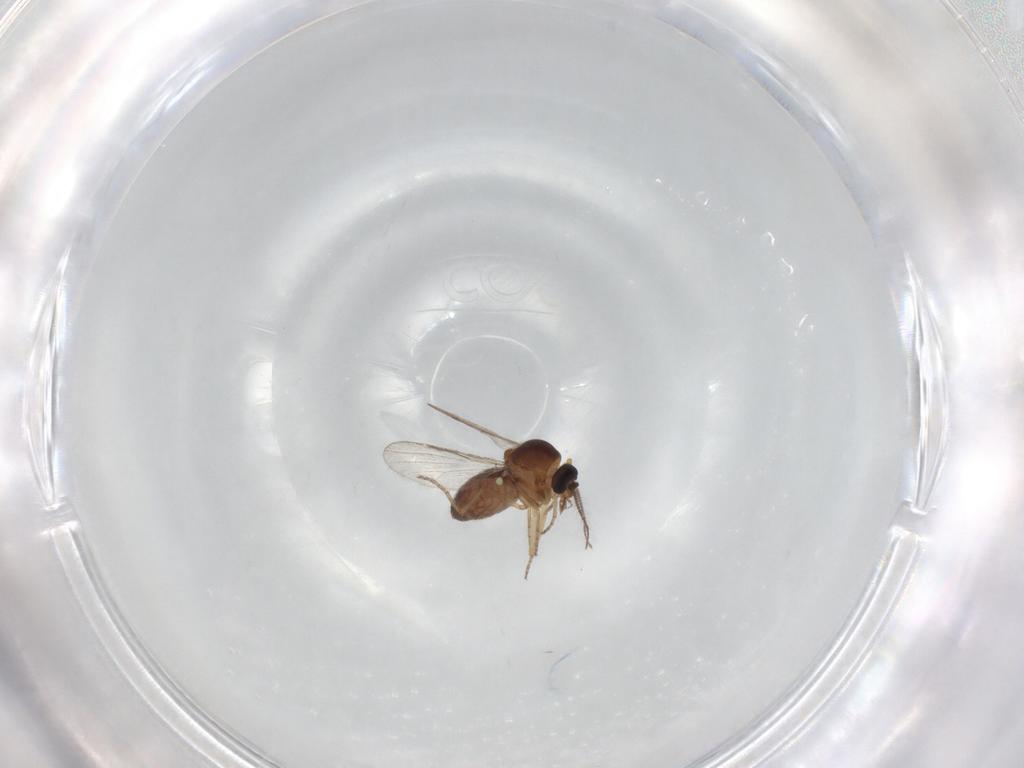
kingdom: Animalia
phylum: Arthropoda
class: Insecta
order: Diptera
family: Ceratopogonidae
